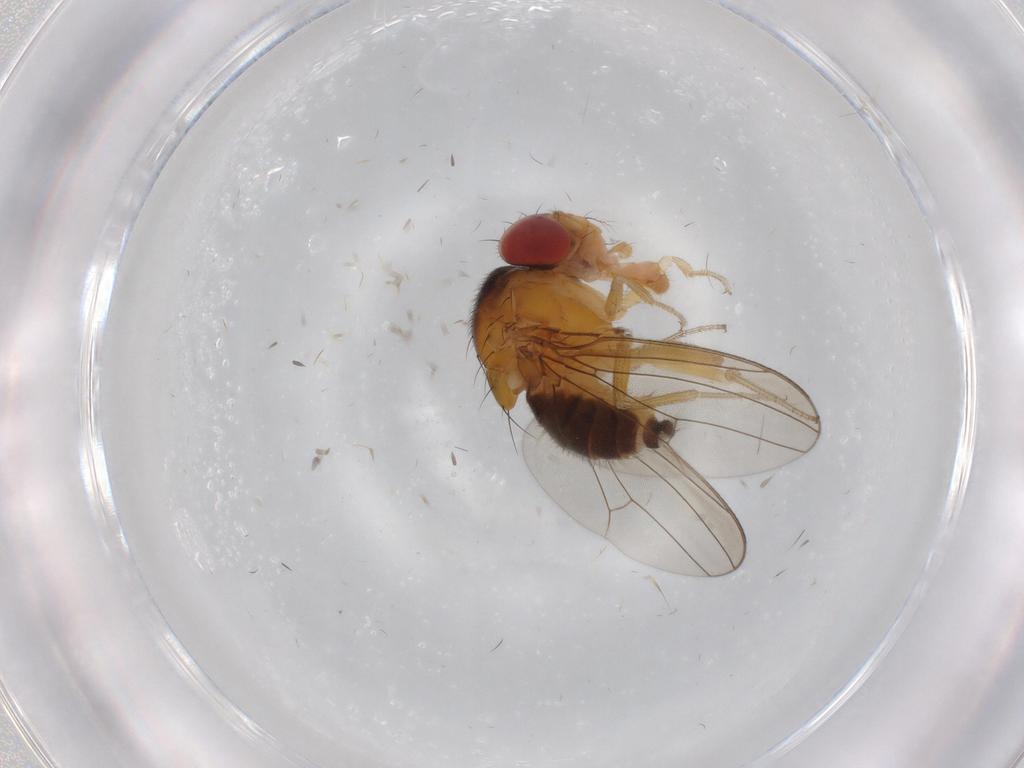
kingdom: Animalia
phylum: Arthropoda
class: Insecta
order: Diptera
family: Drosophilidae
